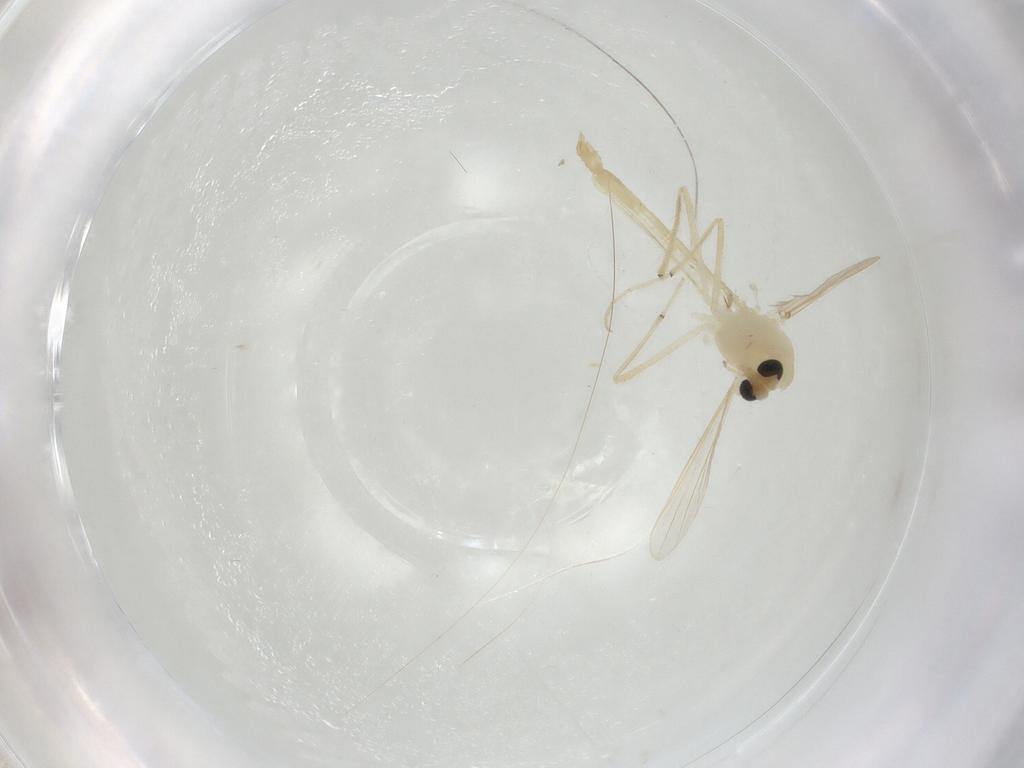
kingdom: Animalia
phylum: Arthropoda
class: Insecta
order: Diptera
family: Chironomidae
